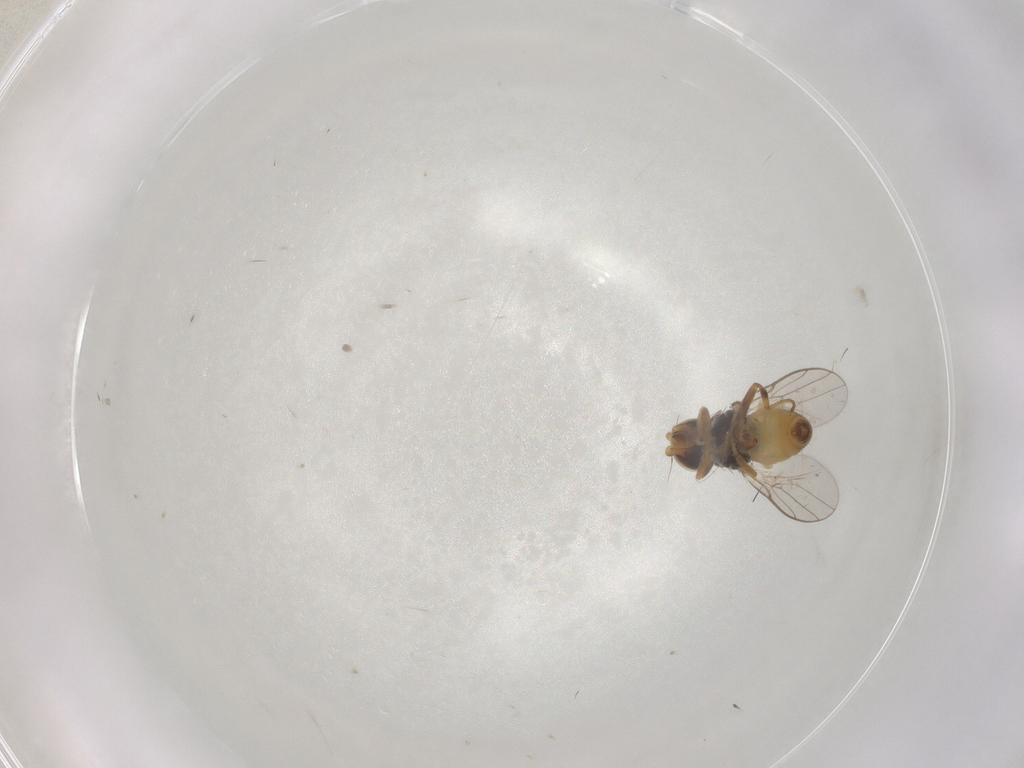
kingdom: Animalia
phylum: Arthropoda
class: Insecta
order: Diptera
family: Chloropidae
